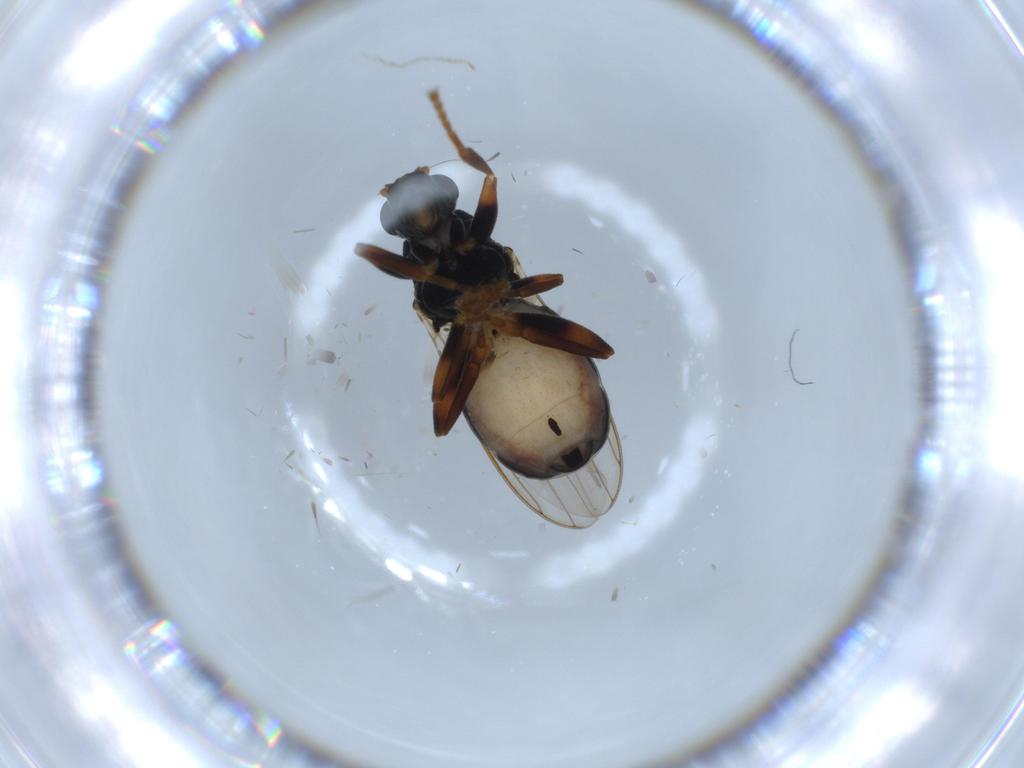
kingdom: Animalia
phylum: Arthropoda
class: Insecta
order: Diptera
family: Sphaeroceridae
